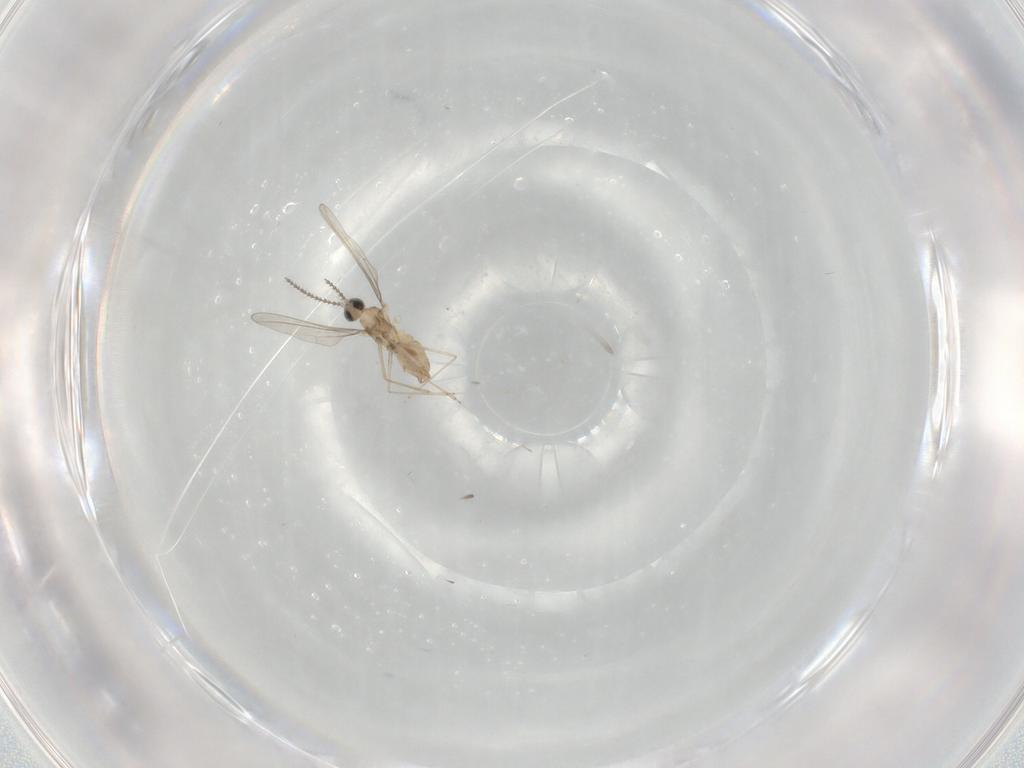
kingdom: Animalia
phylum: Arthropoda
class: Insecta
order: Diptera
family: Cecidomyiidae
